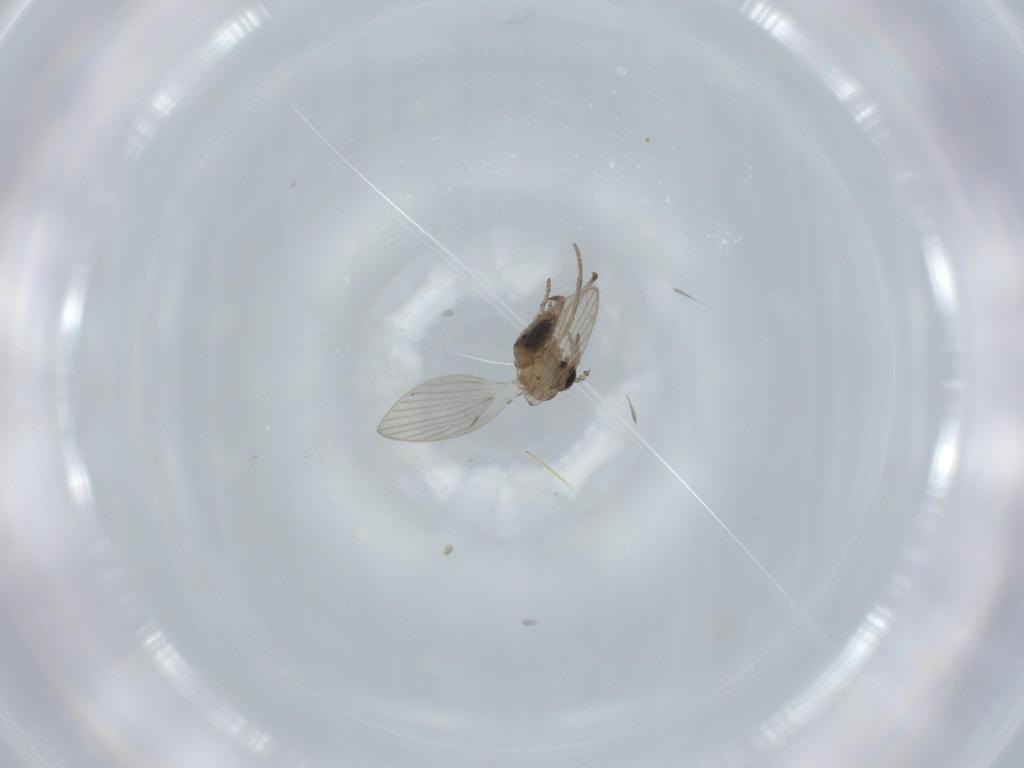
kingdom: Animalia
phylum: Arthropoda
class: Insecta
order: Diptera
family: Psychodidae
